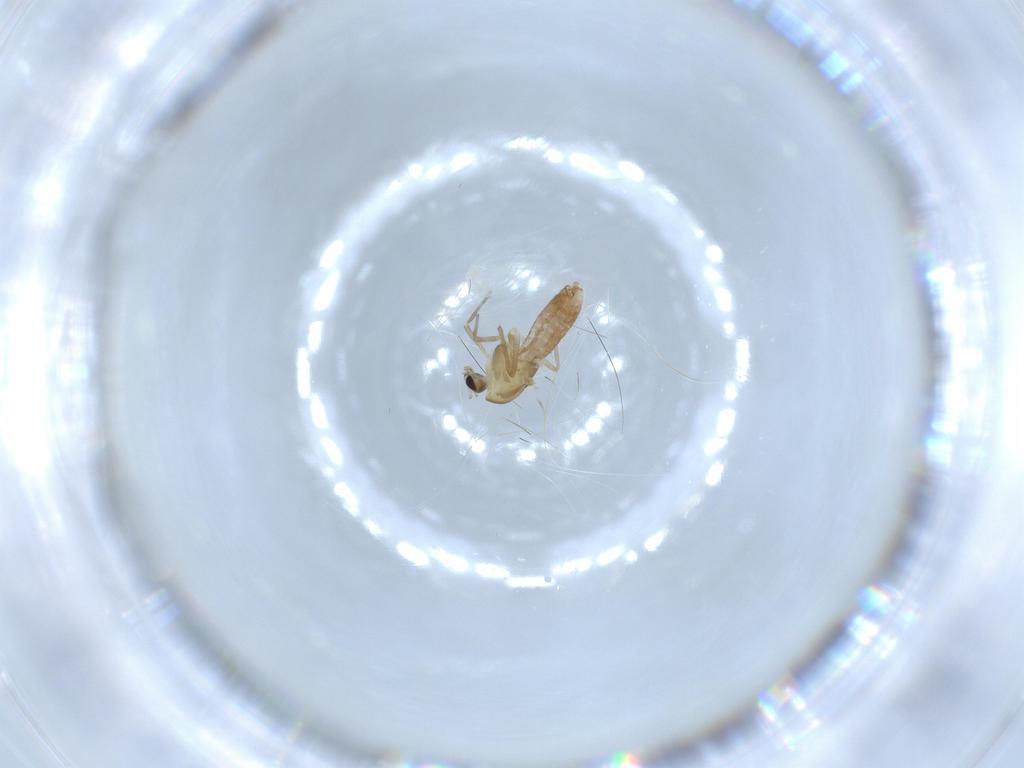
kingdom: Animalia
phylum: Arthropoda
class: Insecta
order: Diptera
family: Chironomidae
